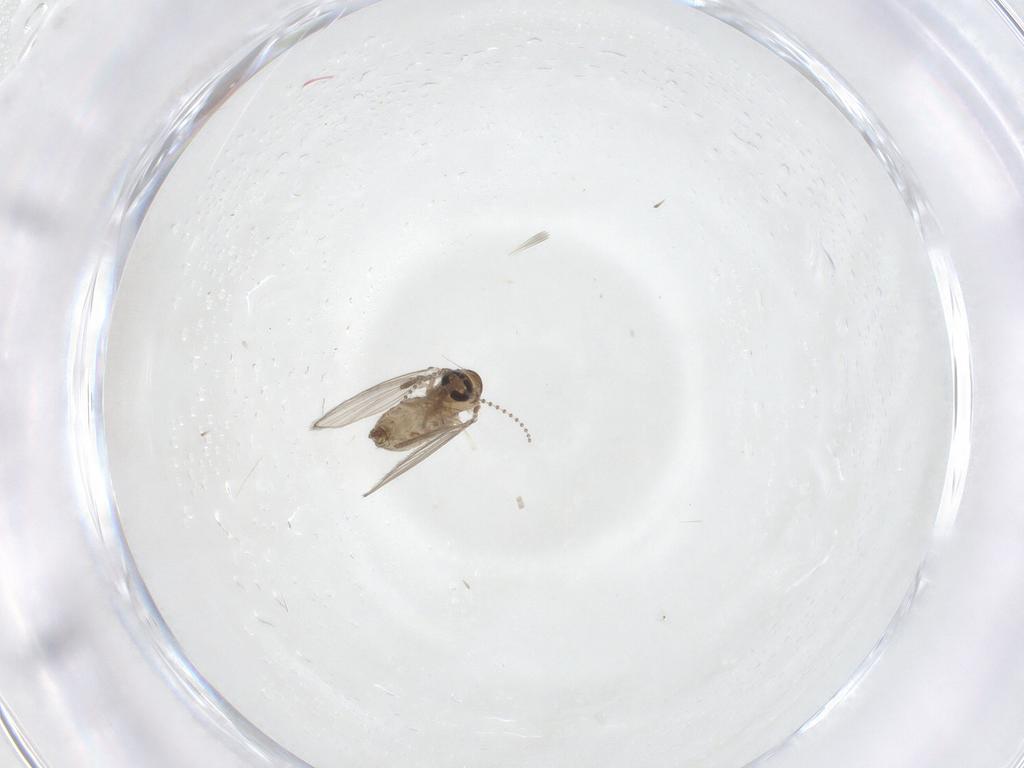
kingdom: Animalia
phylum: Arthropoda
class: Insecta
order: Diptera
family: Psychodidae
